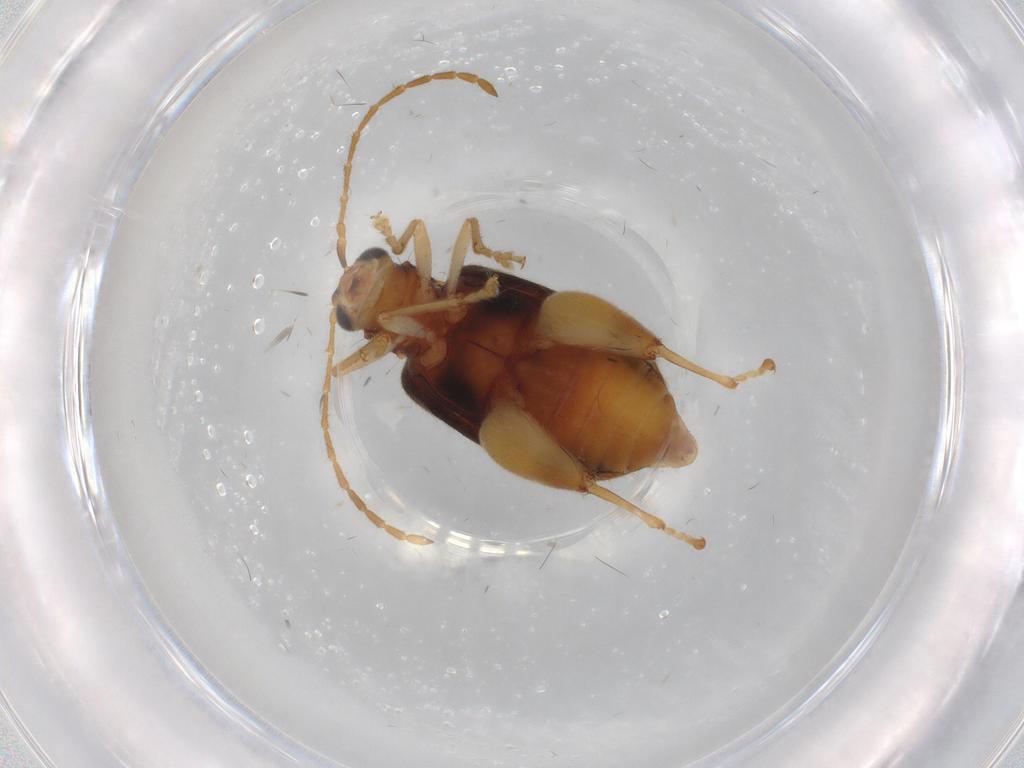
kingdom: Animalia
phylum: Arthropoda
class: Insecta
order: Coleoptera
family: Chrysomelidae
